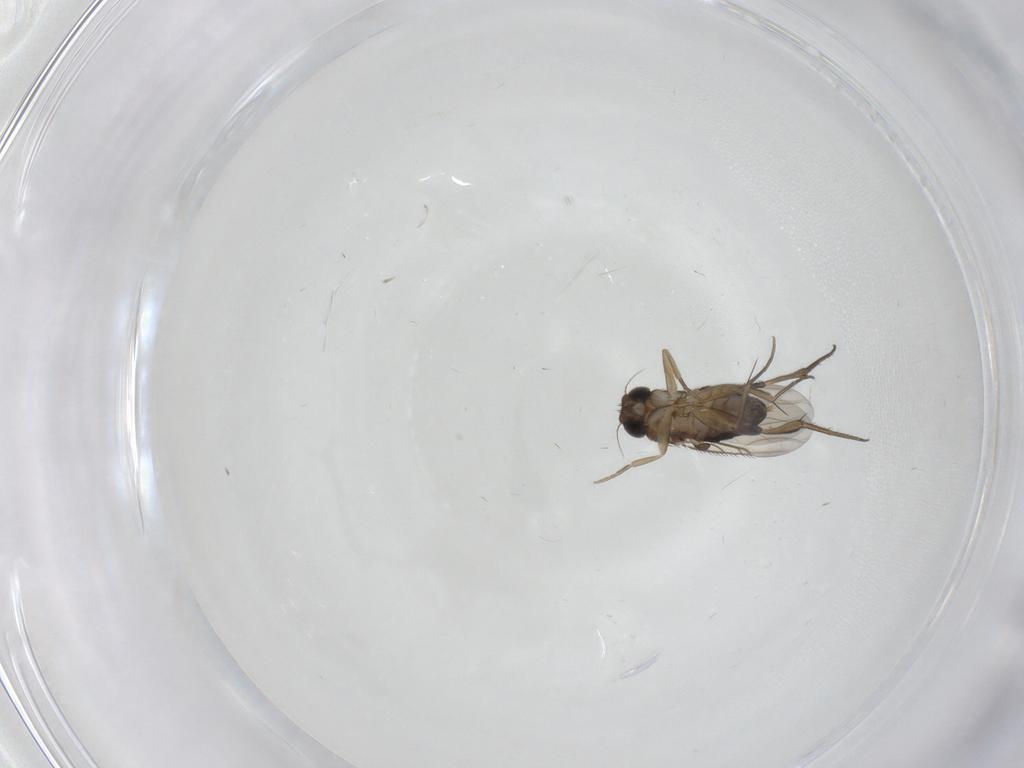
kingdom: Animalia
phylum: Arthropoda
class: Insecta
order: Diptera
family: Phoridae
